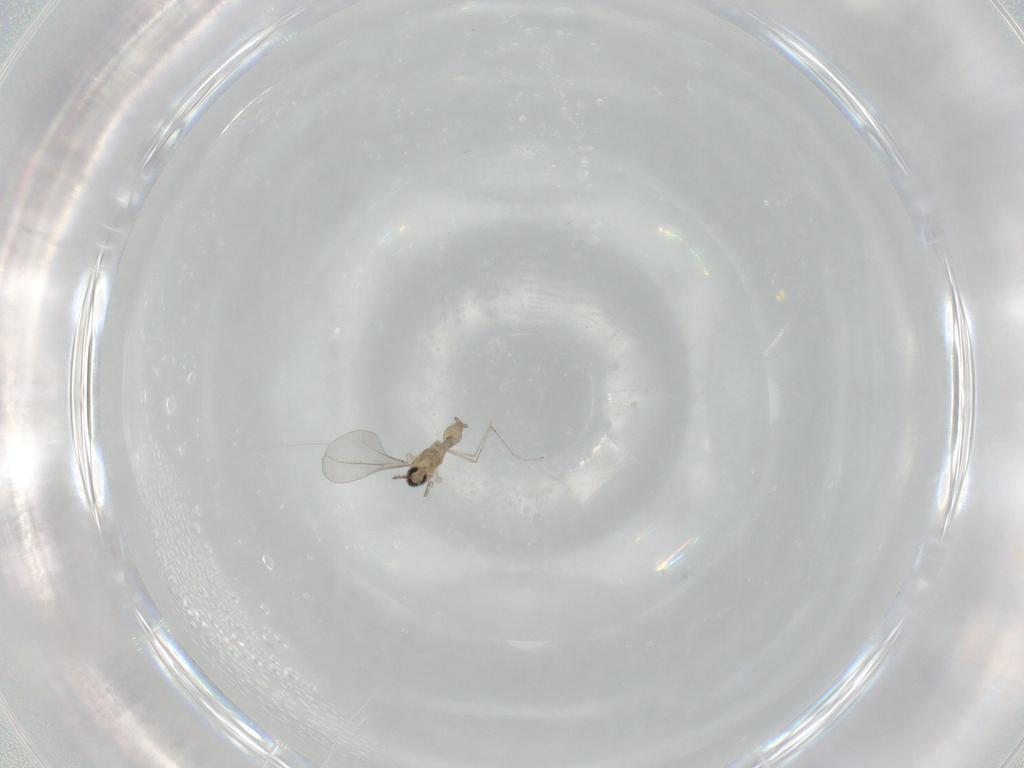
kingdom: Animalia
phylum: Arthropoda
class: Insecta
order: Diptera
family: Cecidomyiidae
